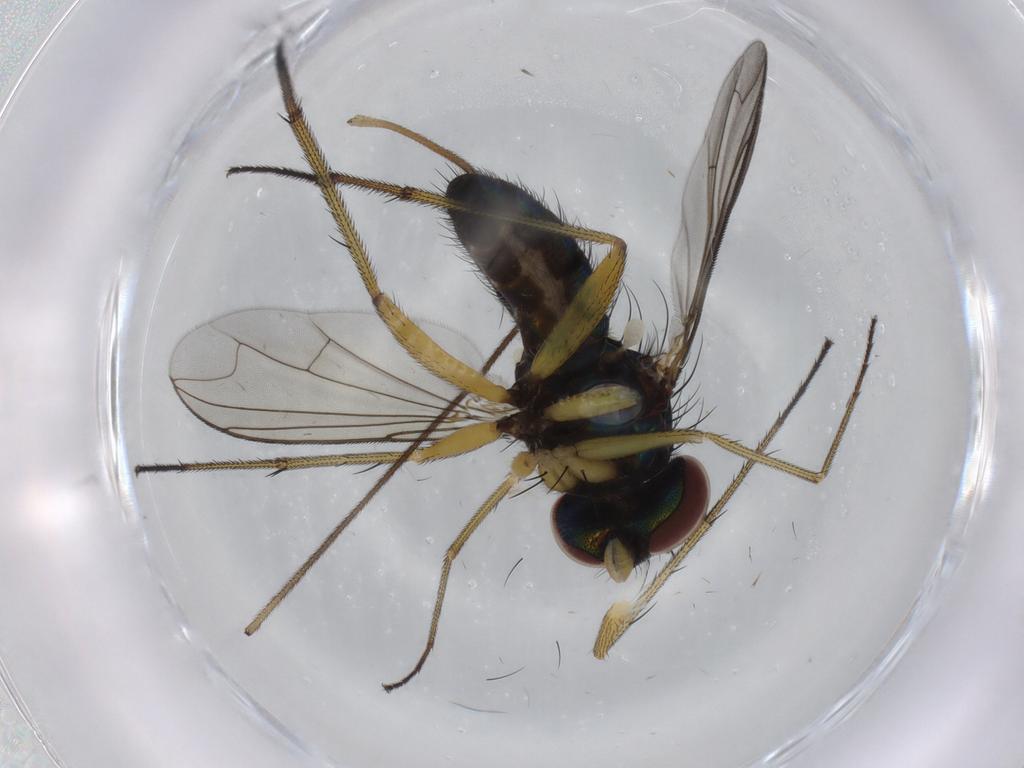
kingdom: Animalia
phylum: Arthropoda
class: Insecta
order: Diptera
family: Dolichopodidae
